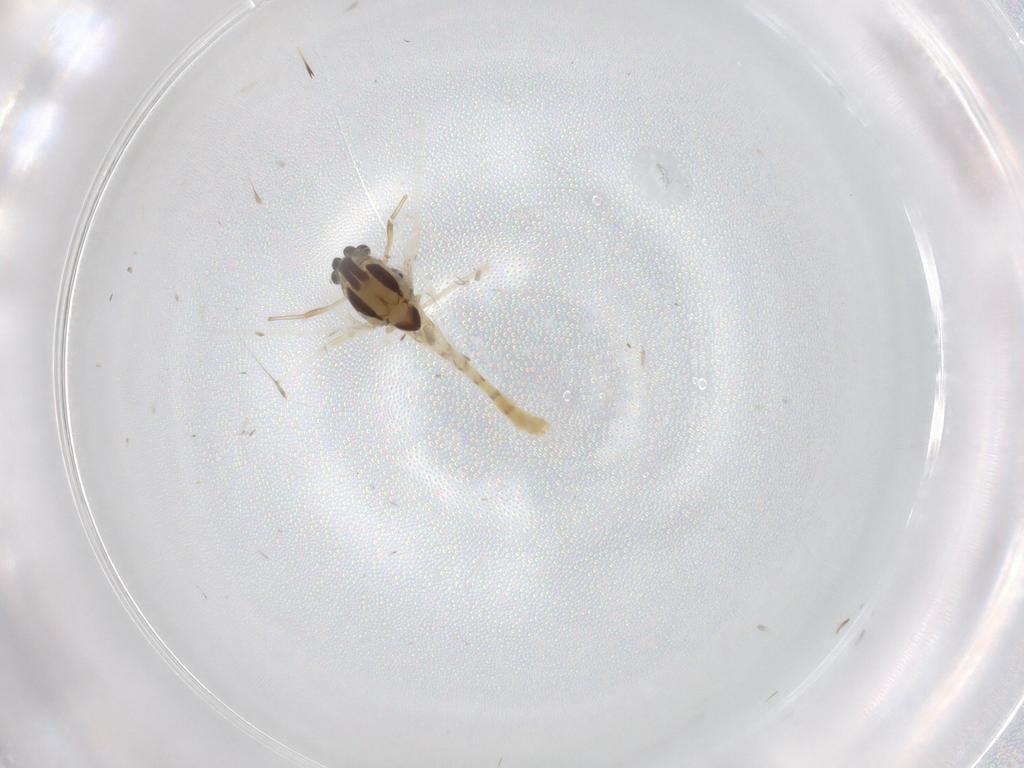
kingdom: Animalia
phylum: Arthropoda
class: Insecta
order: Diptera
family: Chironomidae
